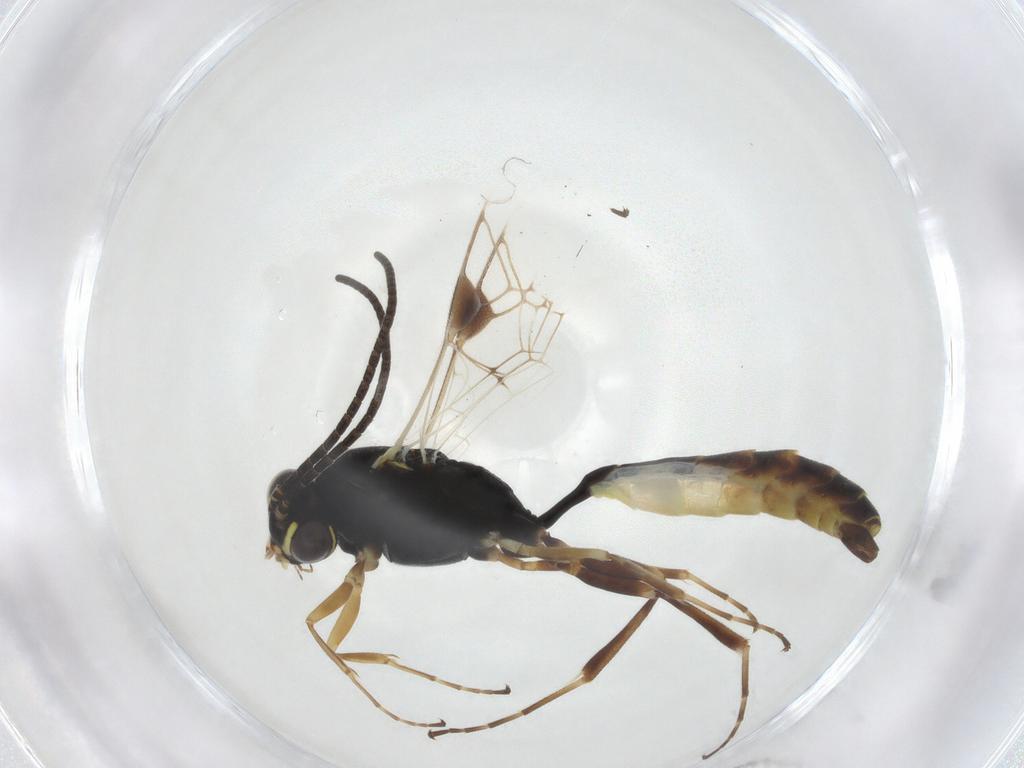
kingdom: Animalia
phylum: Arthropoda
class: Insecta
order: Hymenoptera
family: Ichneumonidae
